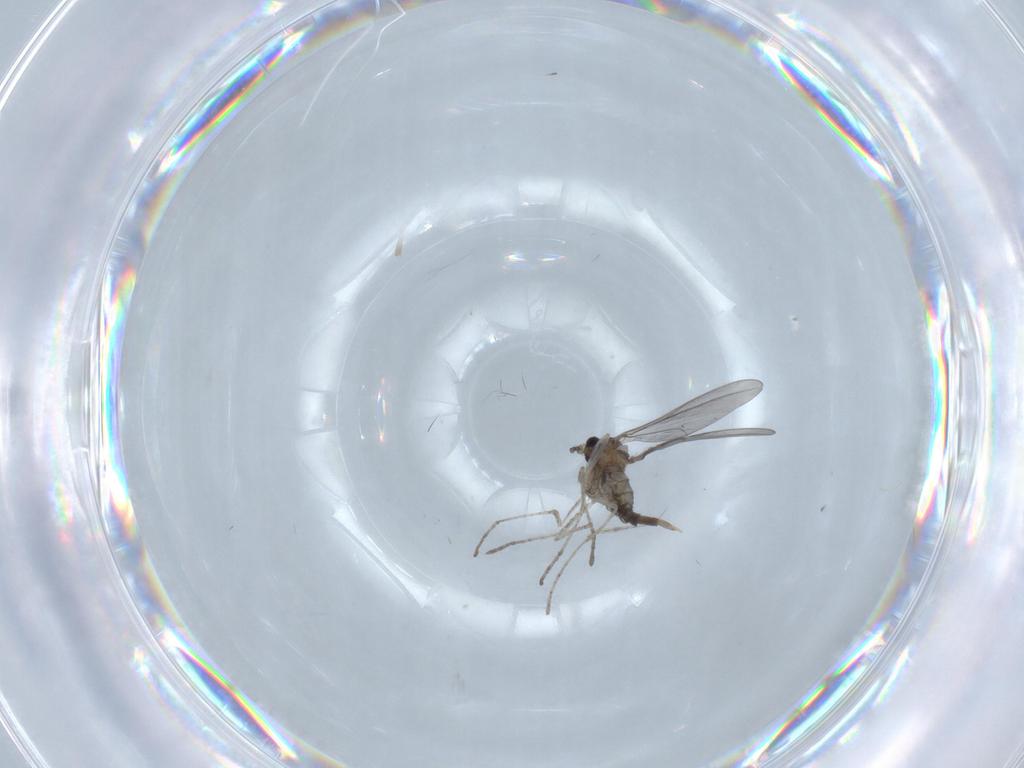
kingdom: Animalia
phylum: Arthropoda
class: Insecta
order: Diptera
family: Cecidomyiidae
